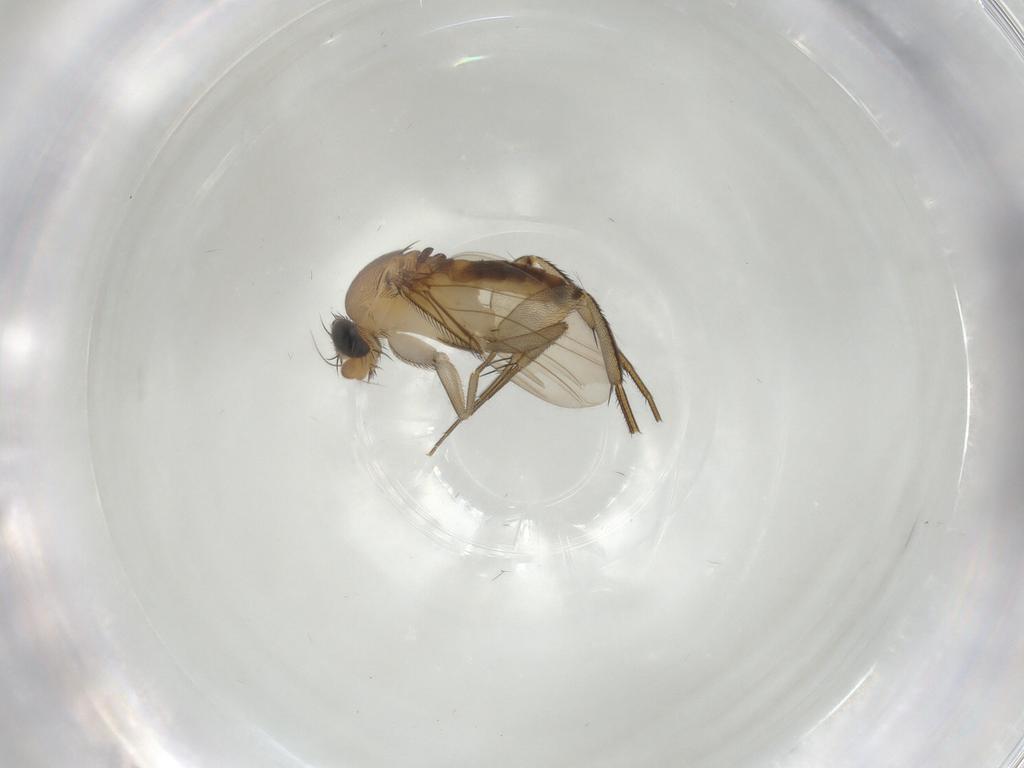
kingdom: Animalia
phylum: Arthropoda
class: Insecta
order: Diptera
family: Phoridae
